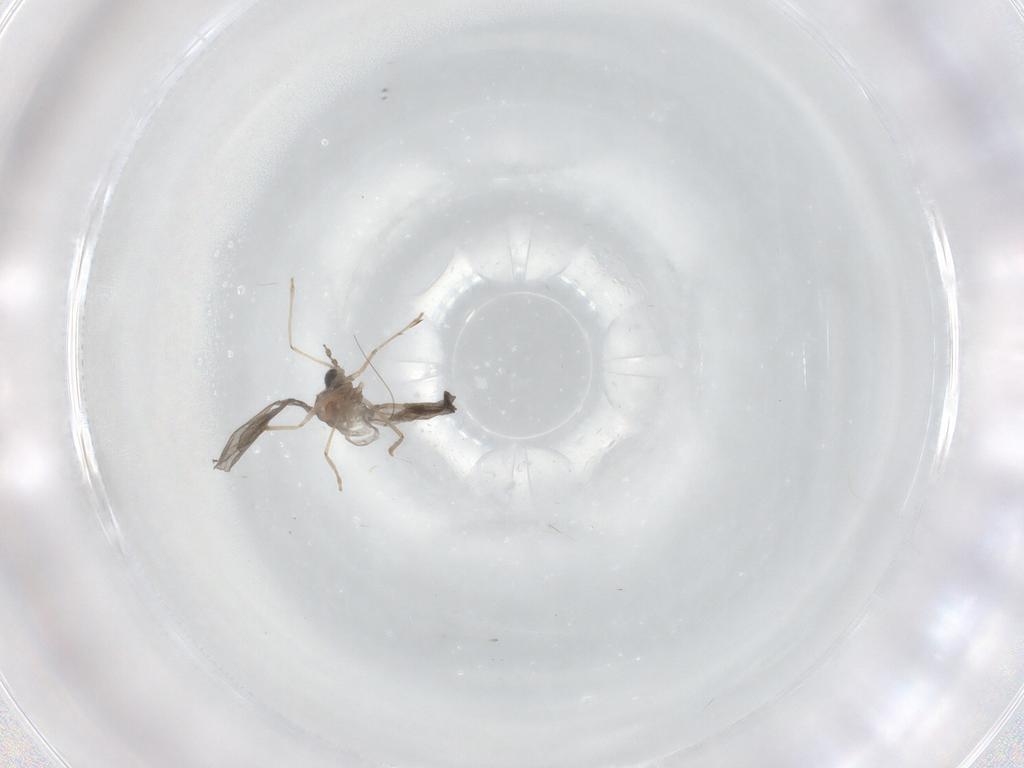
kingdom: Animalia
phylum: Arthropoda
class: Insecta
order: Diptera
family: Cecidomyiidae
